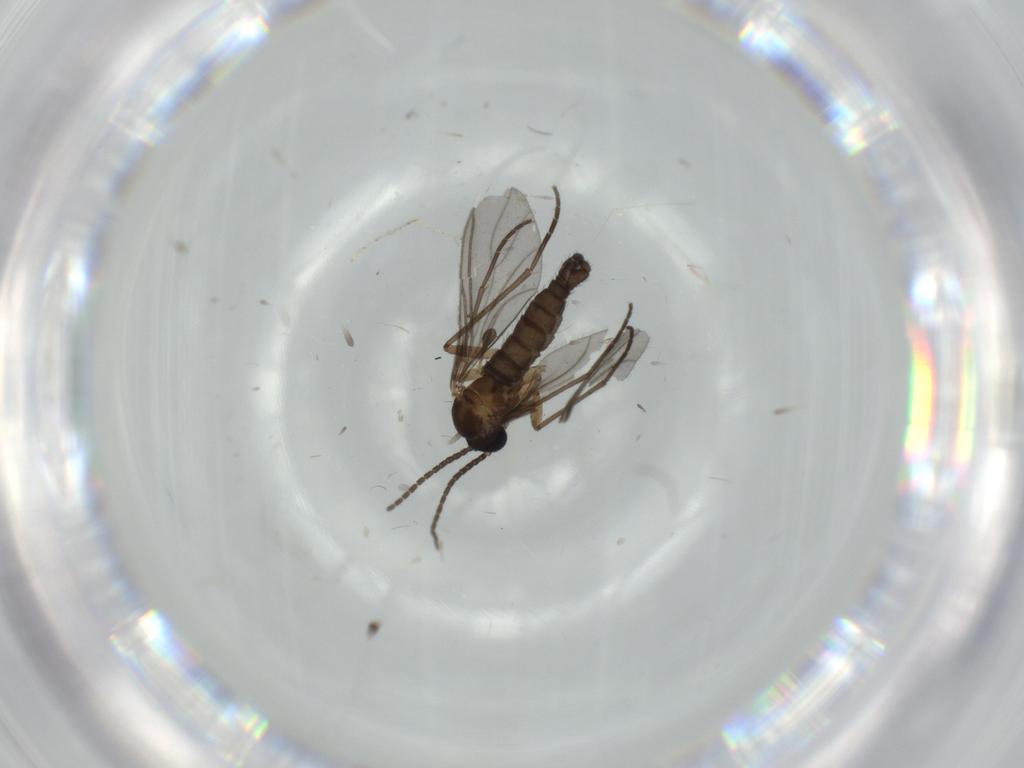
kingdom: Animalia
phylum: Arthropoda
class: Insecta
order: Diptera
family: Sciaridae
